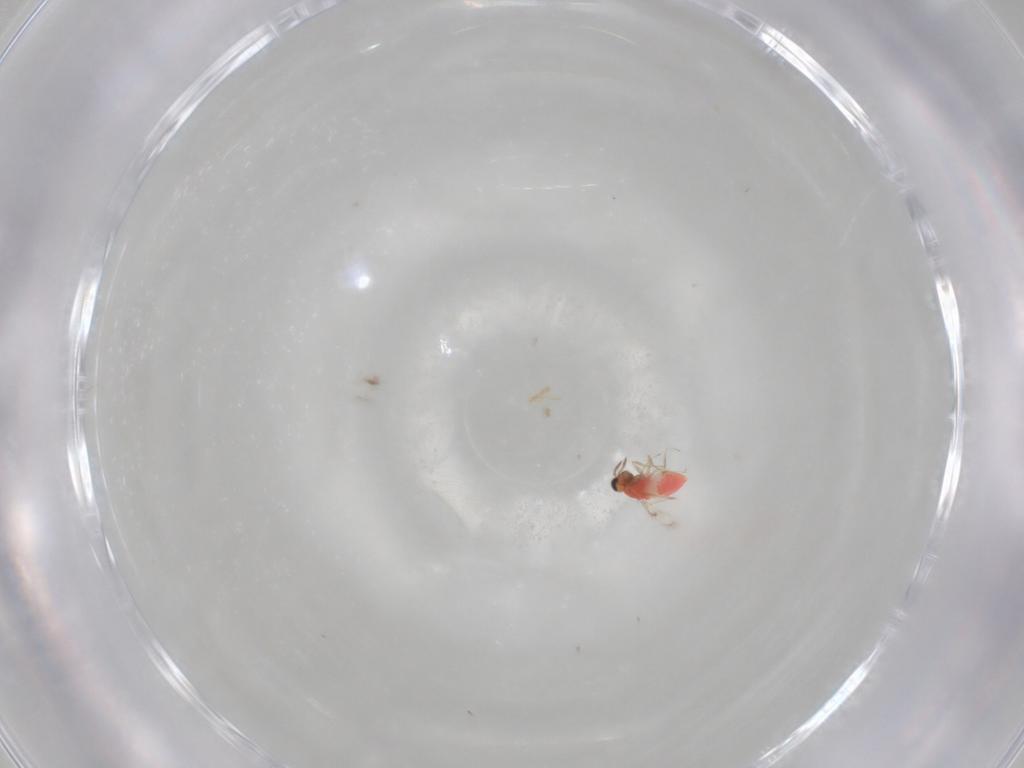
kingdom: Animalia
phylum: Arthropoda
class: Insecta
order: Hymenoptera
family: Trichogrammatidae
